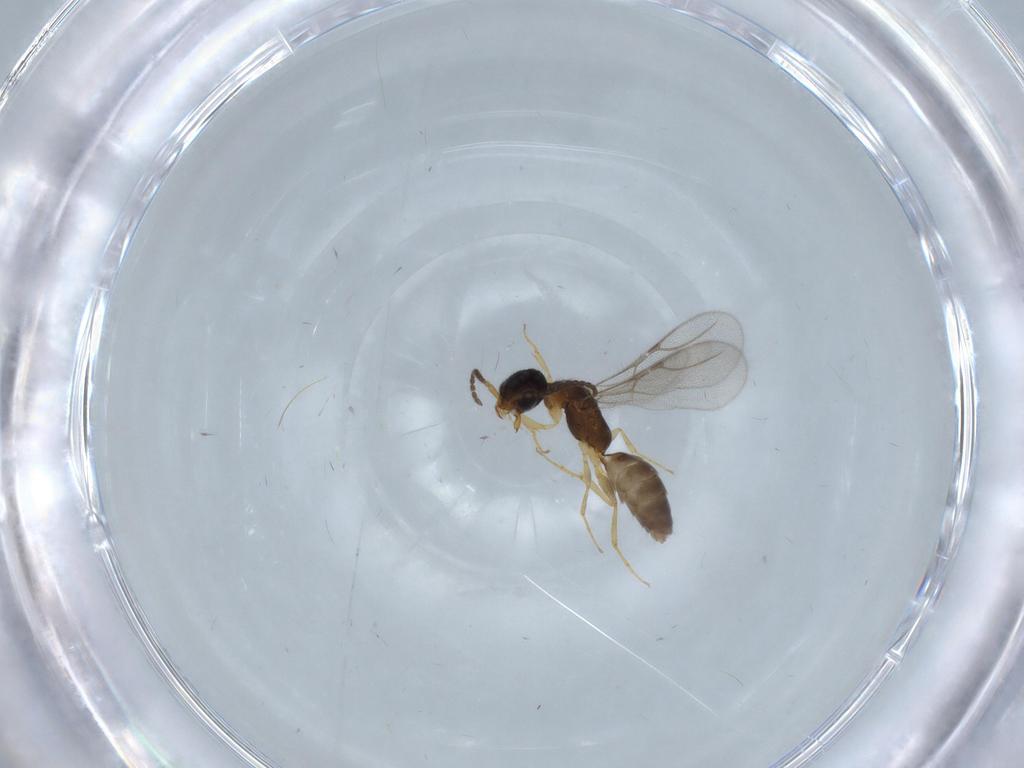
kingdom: Animalia
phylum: Arthropoda
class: Insecta
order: Hymenoptera
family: Bethylidae
